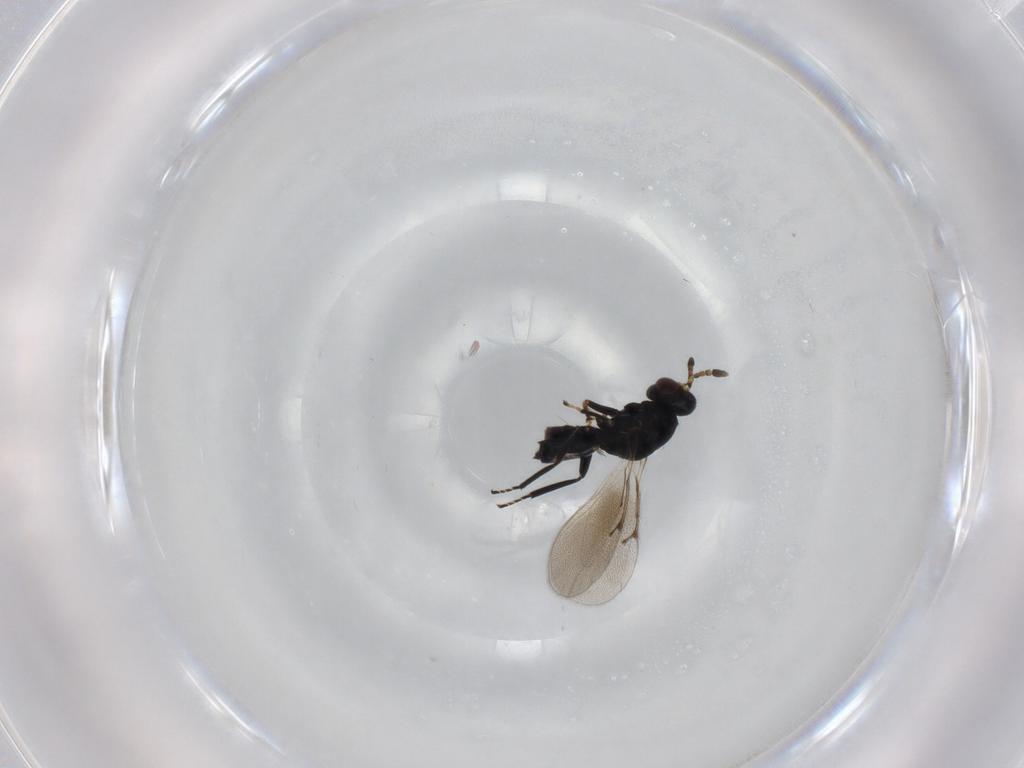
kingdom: Animalia
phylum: Arthropoda
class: Insecta
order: Hymenoptera
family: Eulophidae
